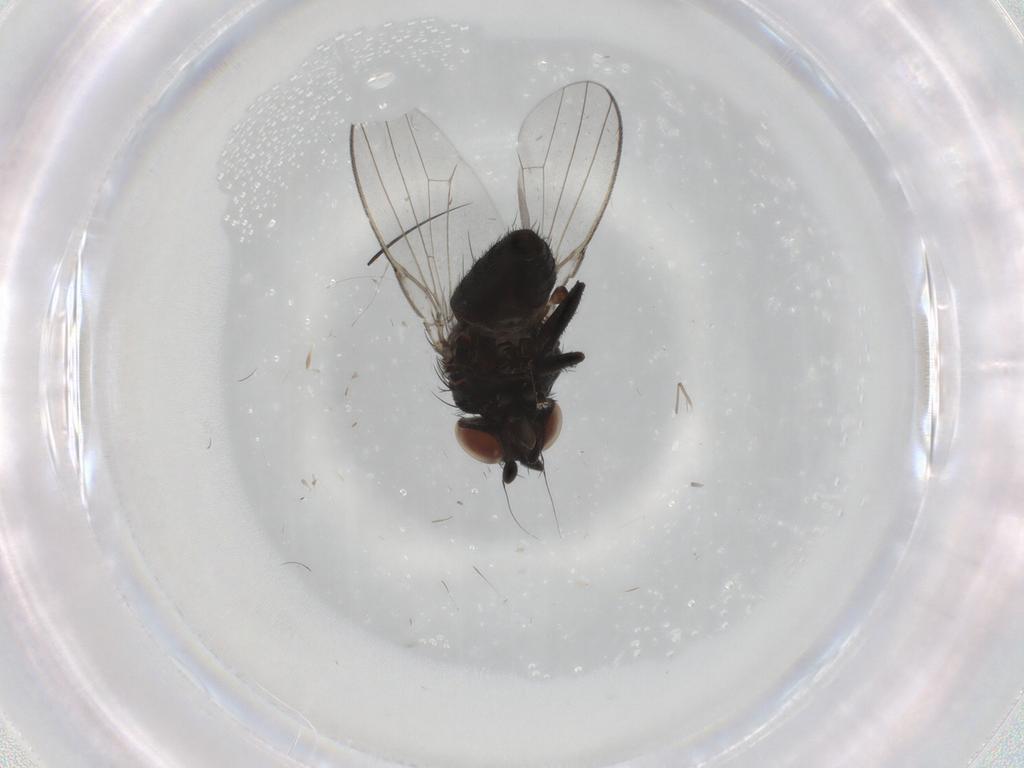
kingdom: Animalia
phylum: Arthropoda
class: Insecta
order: Diptera
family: Milichiidae
